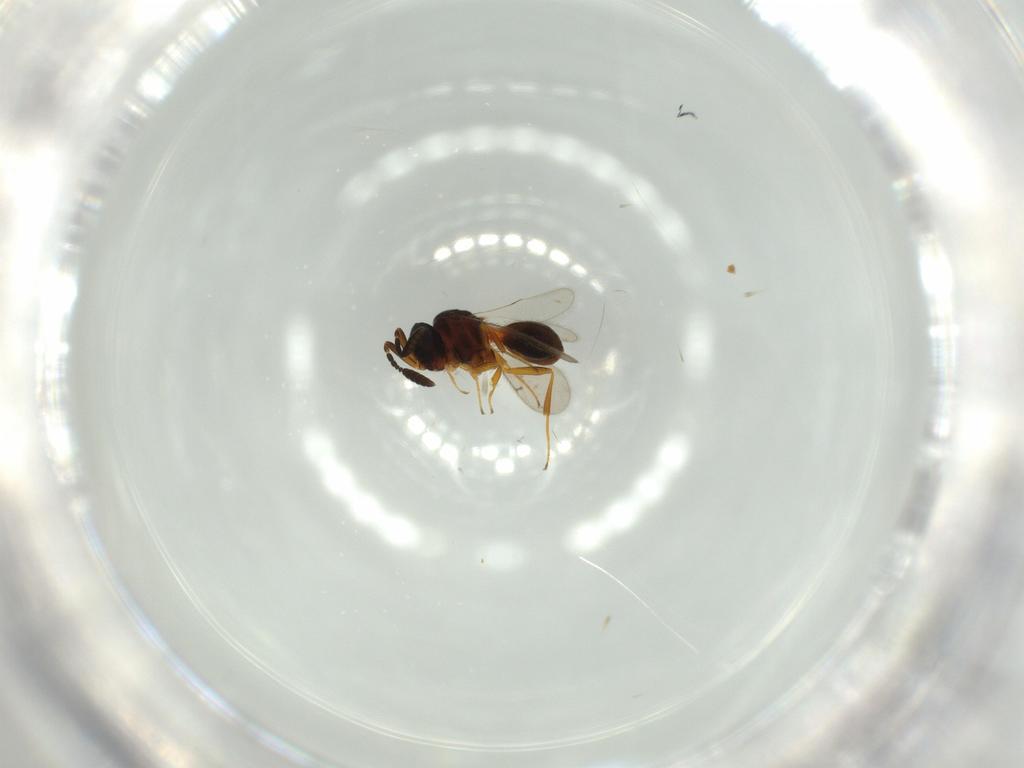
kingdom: Animalia
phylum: Arthropoda
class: Insecta
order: Hymenoptera
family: Scelionidae
